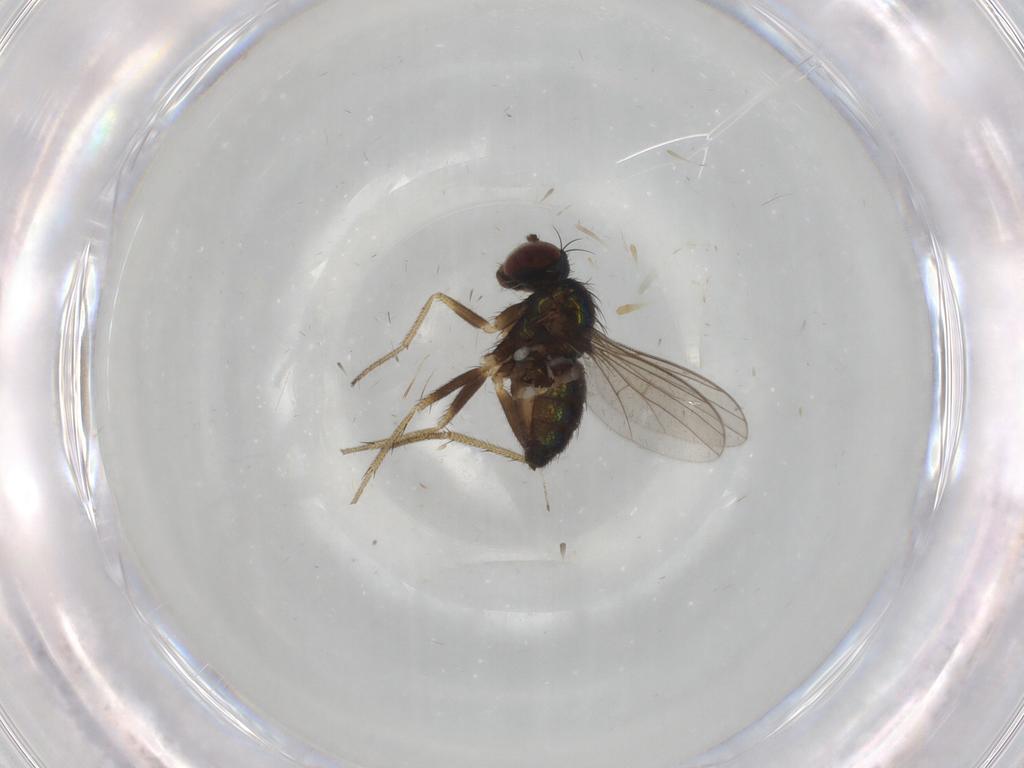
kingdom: Animalia
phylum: Arthropoda
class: Insecta
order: Diptera
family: Dolichopodidae
